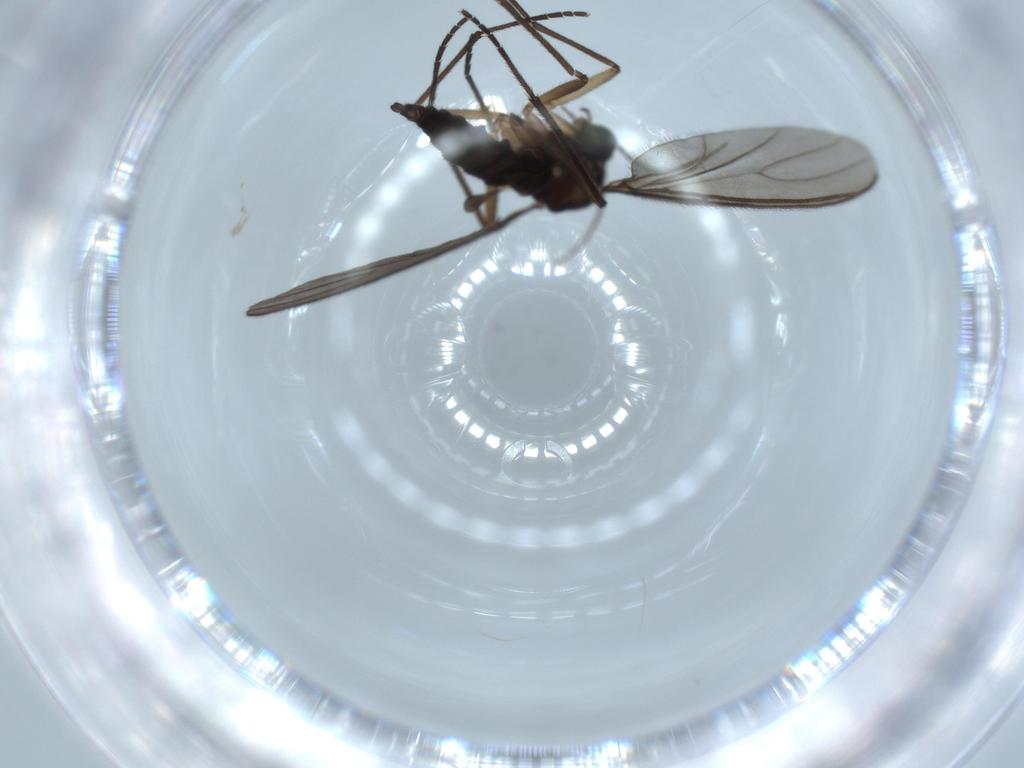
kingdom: Animalia
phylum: Arthropoda
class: Insecta
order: Diptera
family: Sciaridae
